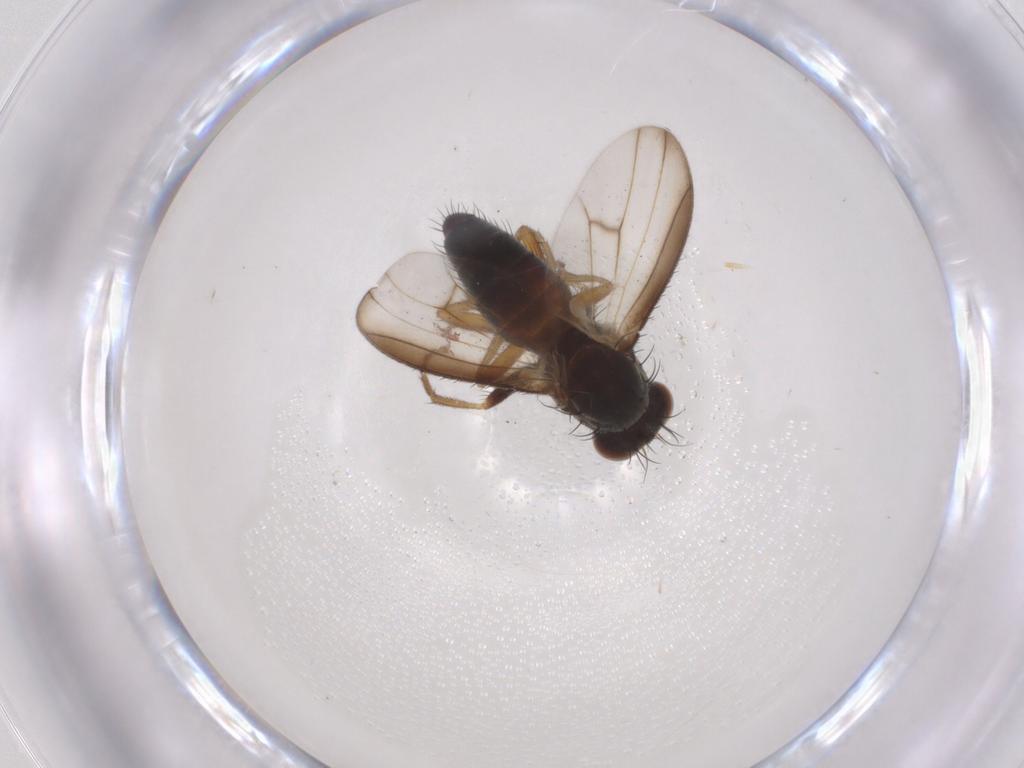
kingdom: Animalia
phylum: Arthropoda
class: Insecta
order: Diptera
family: Heleomyzidae
